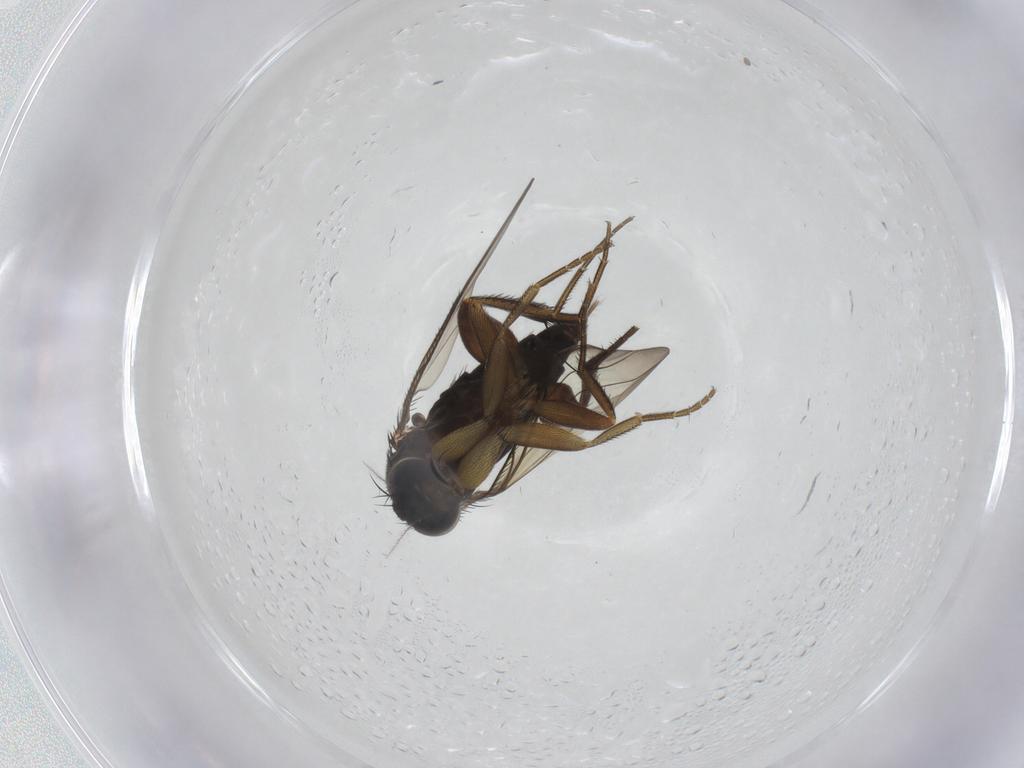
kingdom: Animalia
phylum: Arthropoda
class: Insecta
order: Diptera
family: Phoridae
